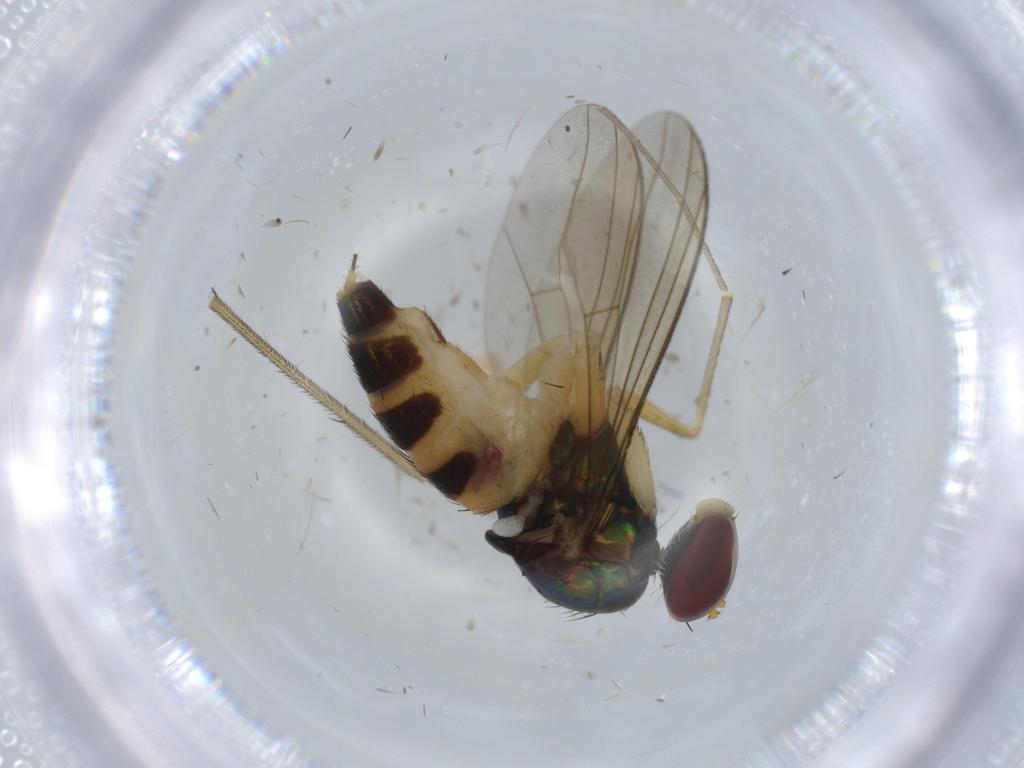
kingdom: Animalia
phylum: Arthropoda
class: Insecta
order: Diptera
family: Dolichopodidae
